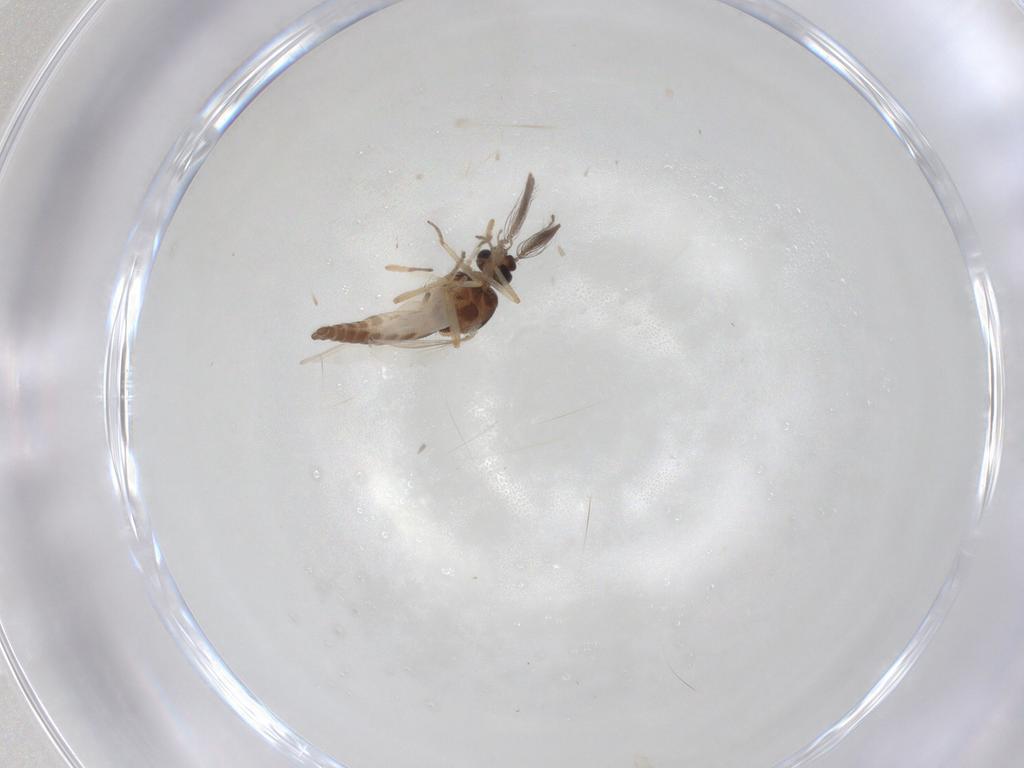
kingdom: Animalia
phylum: Arthropoda
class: Insecta
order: Diptera
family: Ceratopogonidae
